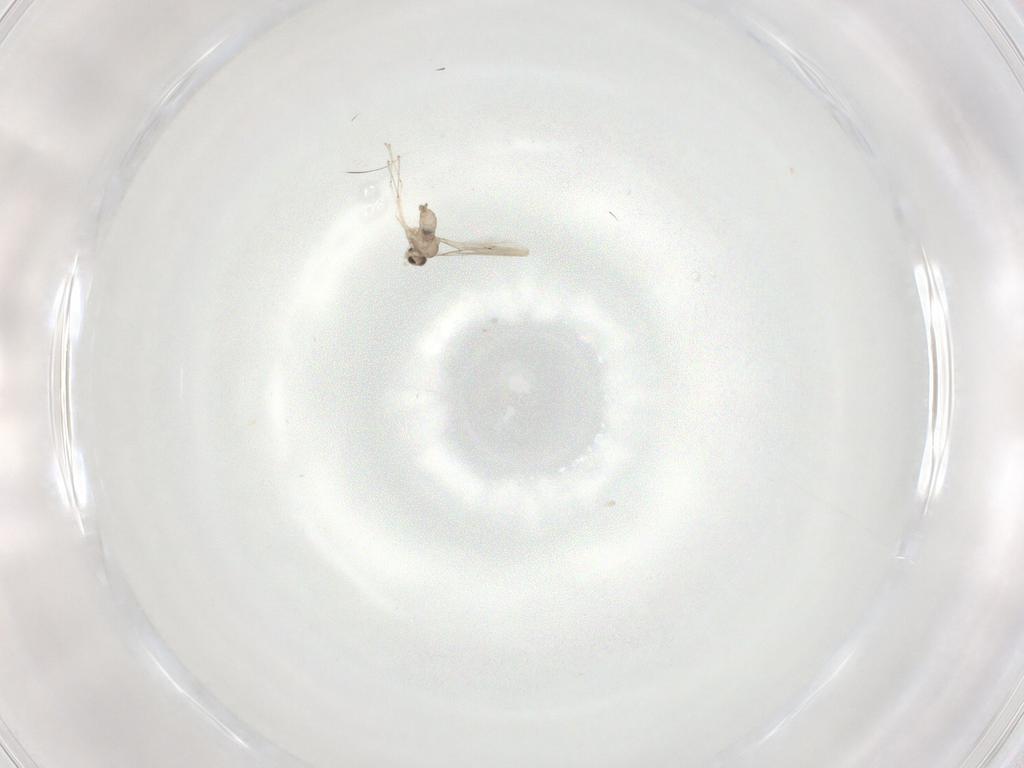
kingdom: Animalia
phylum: Arthropoda
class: Insecta
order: Diptera
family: Cecidomyiidae
